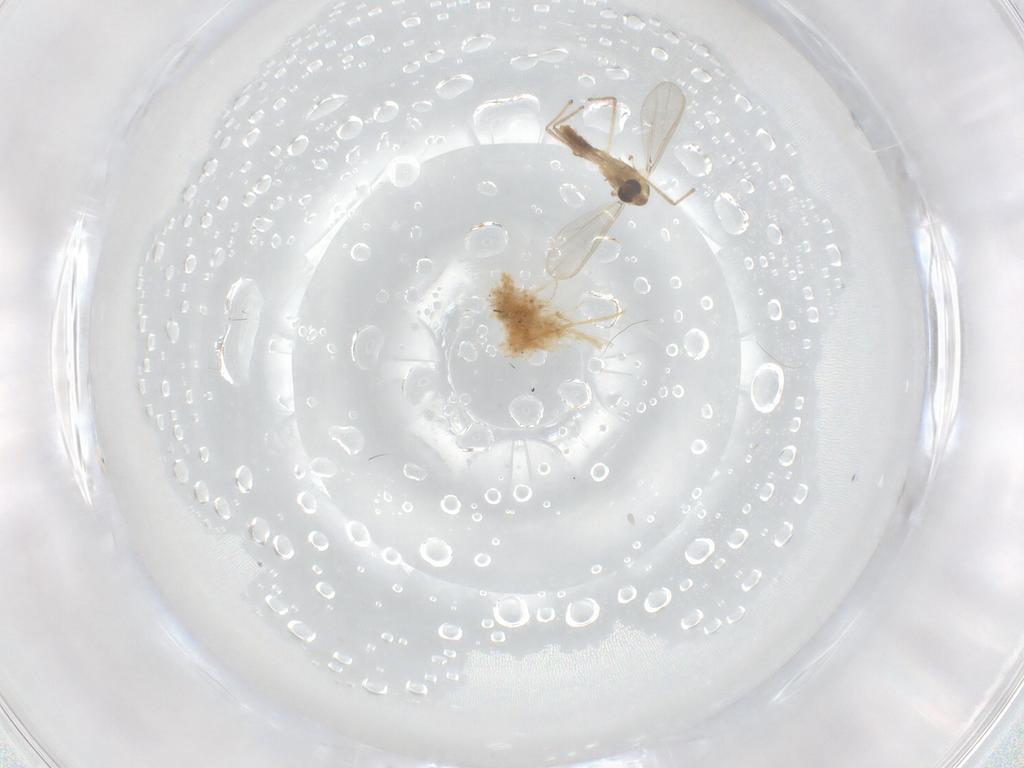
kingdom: Animalia
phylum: Arthropoda
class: Insecta
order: Diptera
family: Chironomidae
